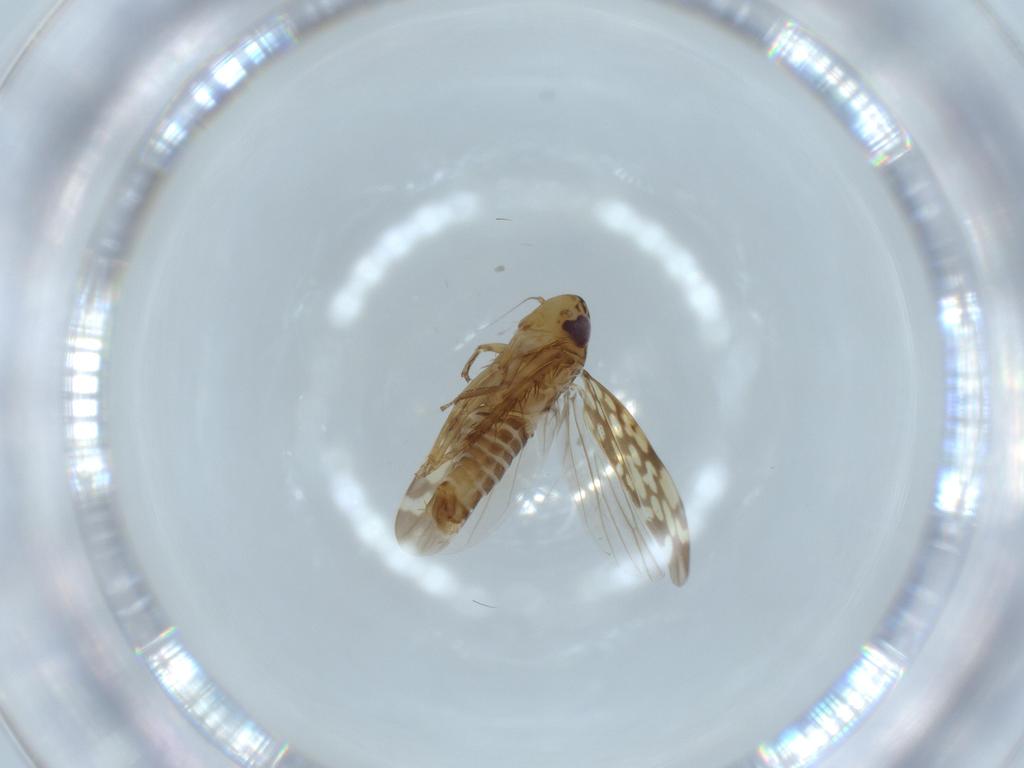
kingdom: Animalia
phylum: Arthropoda
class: Insecta
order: Hemiptera
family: Cicadellidae
